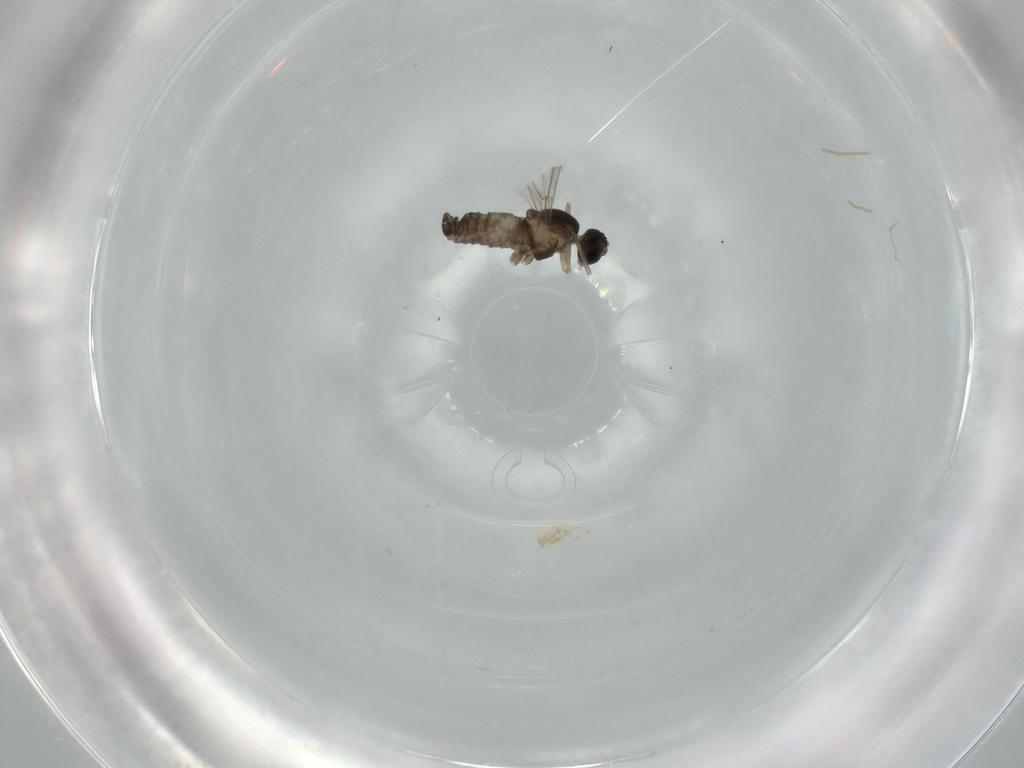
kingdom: Animalia
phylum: Arthropoda
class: Insecta
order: Diptera
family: Cecidomyiidae
